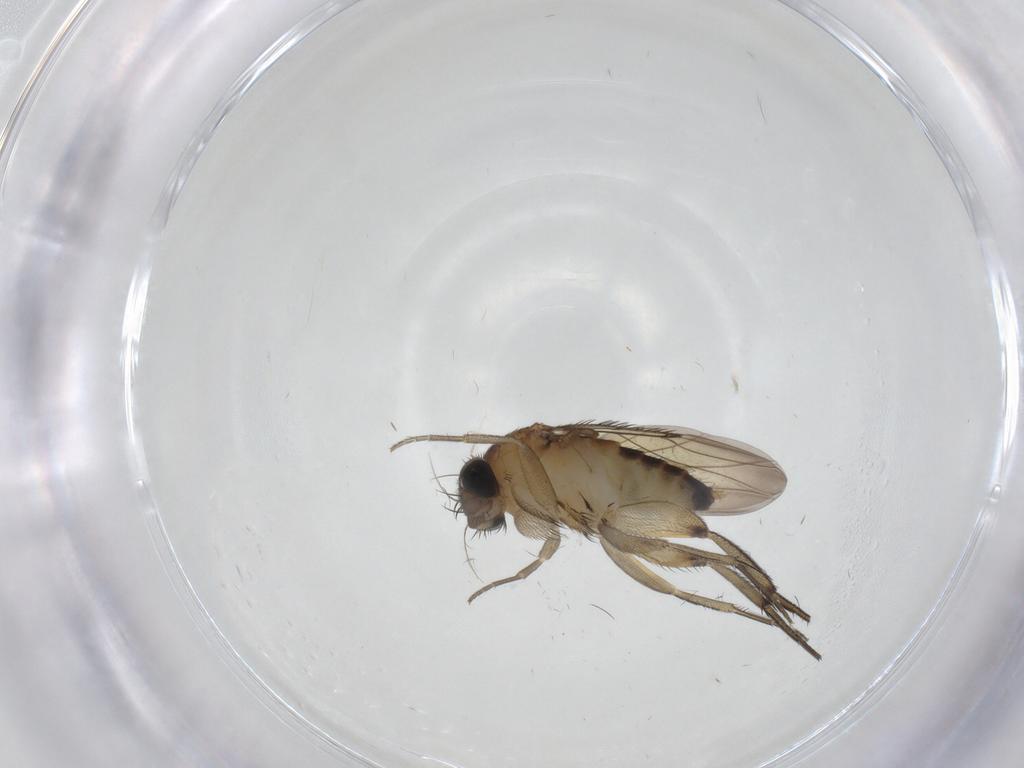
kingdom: Animalia
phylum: Arthropoda
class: Insecta
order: Diptera
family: Phoridae
